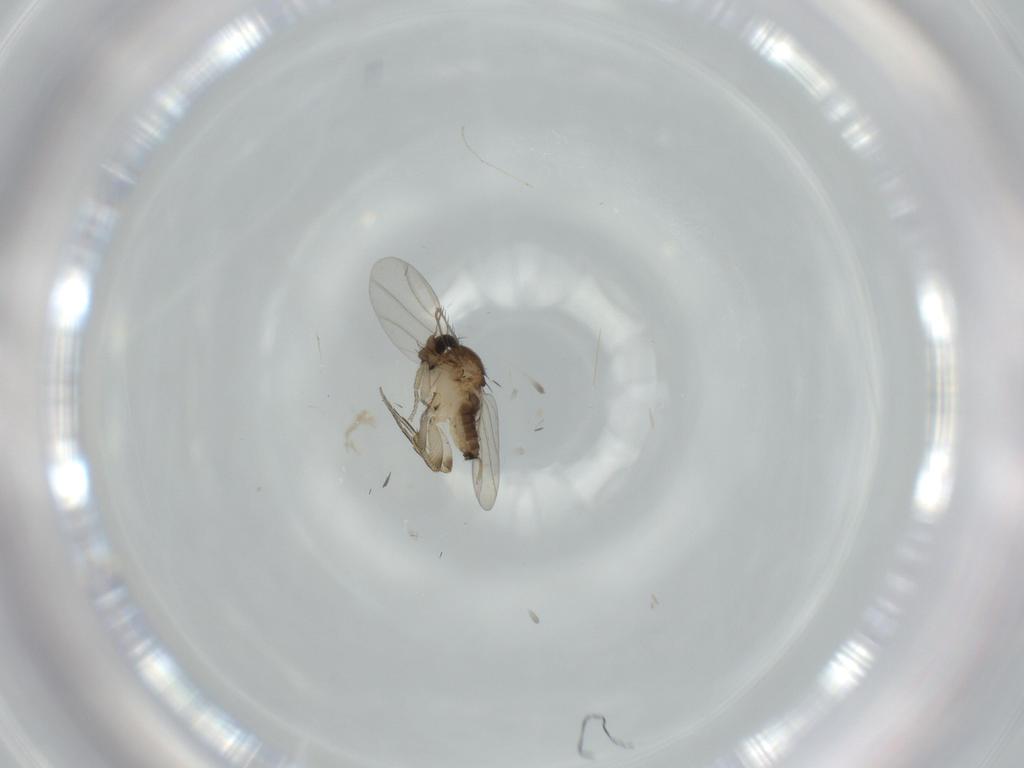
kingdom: Animalia
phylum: Arthropoda
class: Insecta
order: Diptera
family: Phoridae
